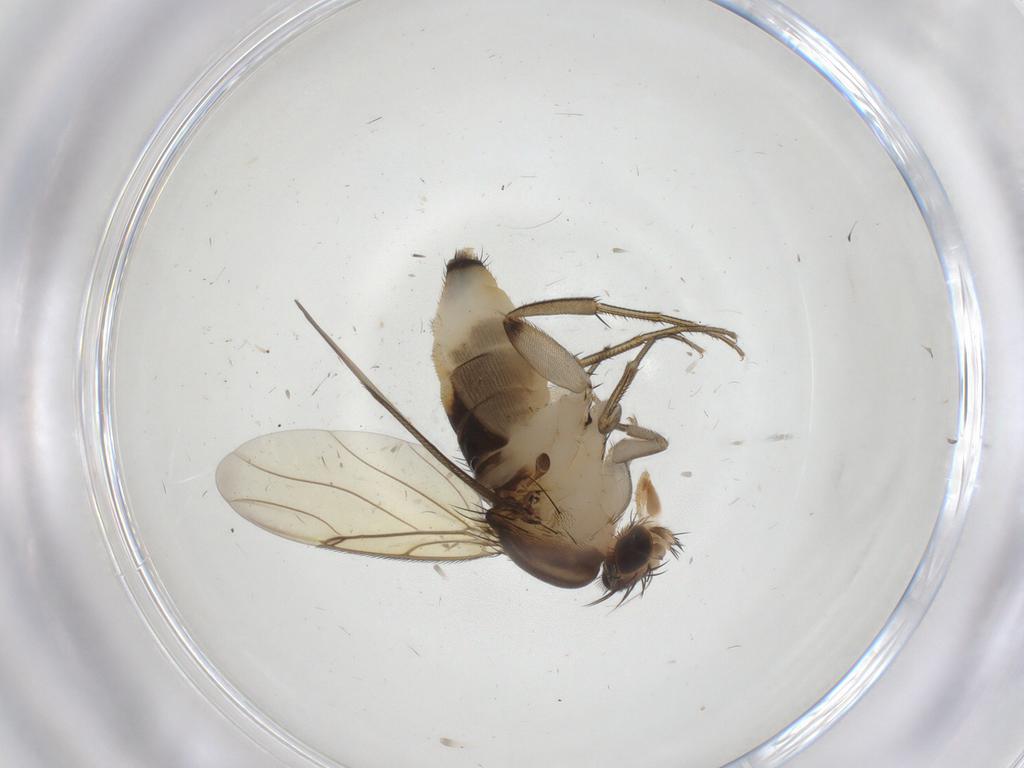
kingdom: Animalia
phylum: Arthropoda
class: Insecta
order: Diptera
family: Phoridae
